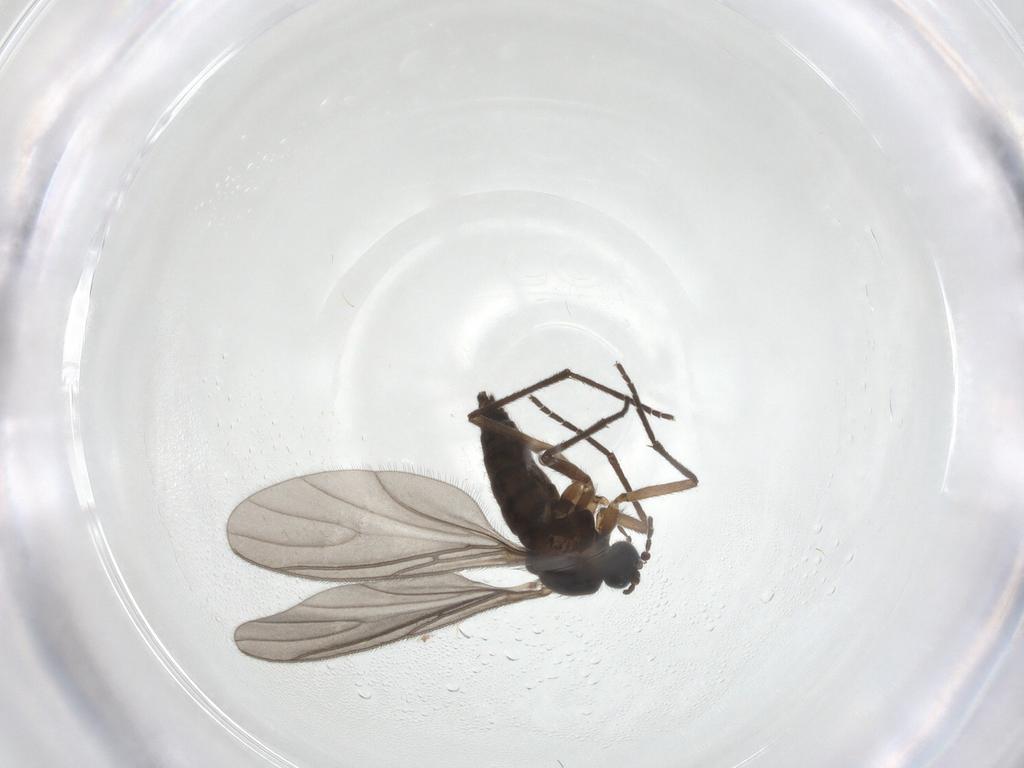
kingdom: Animalia
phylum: Arthropoda
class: Insecta
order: Diptera
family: Sciaridae
